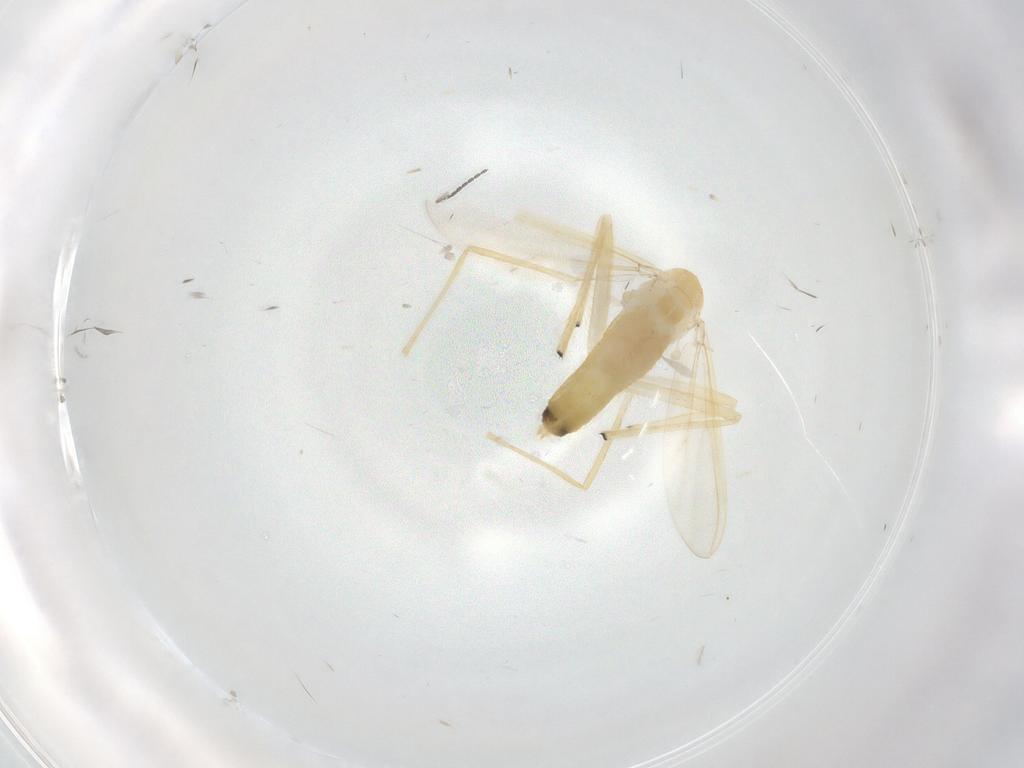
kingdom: Animalia
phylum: Arthropoda
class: Insecta
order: Diptera
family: Chironomidae
